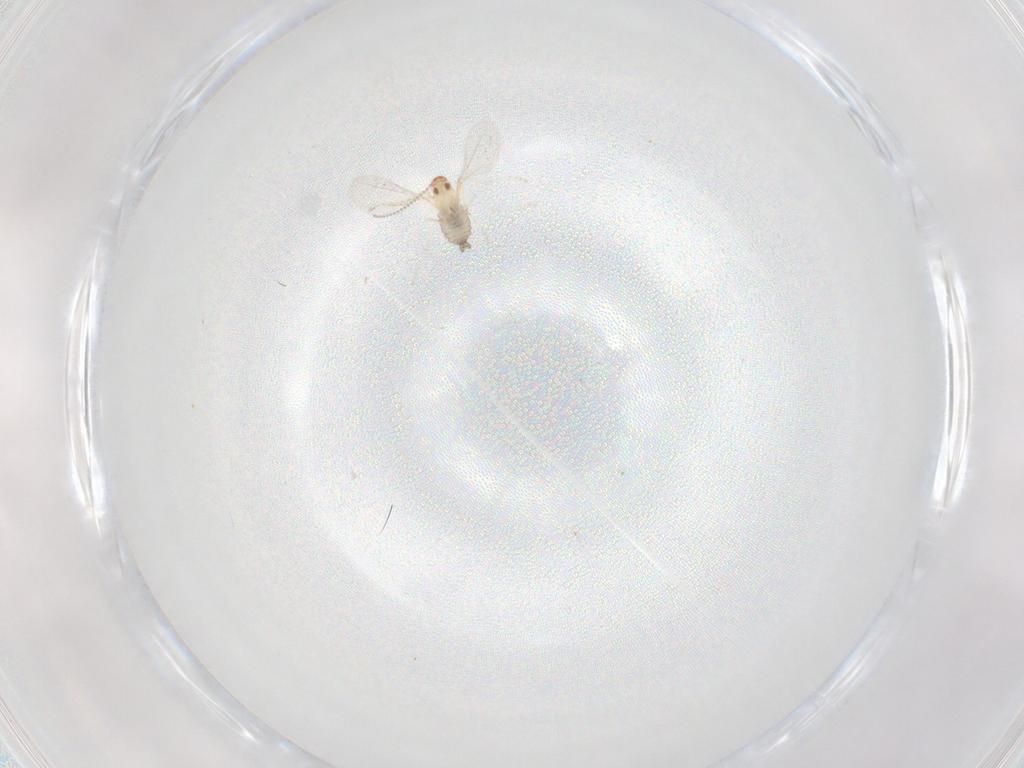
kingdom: Animalia
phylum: Arthropoda
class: Insecta
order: Diptera
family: Cecidomyiidae
